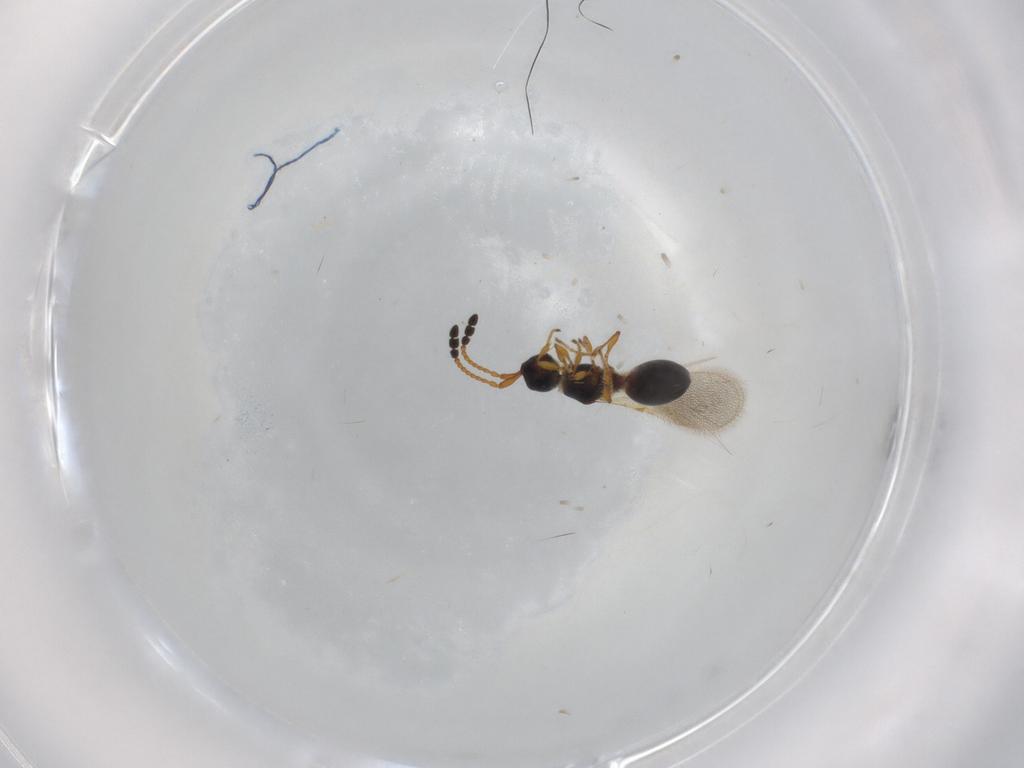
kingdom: Animalia
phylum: Arthropoda
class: Insecta
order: Hymenoptera
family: Diapriidae
